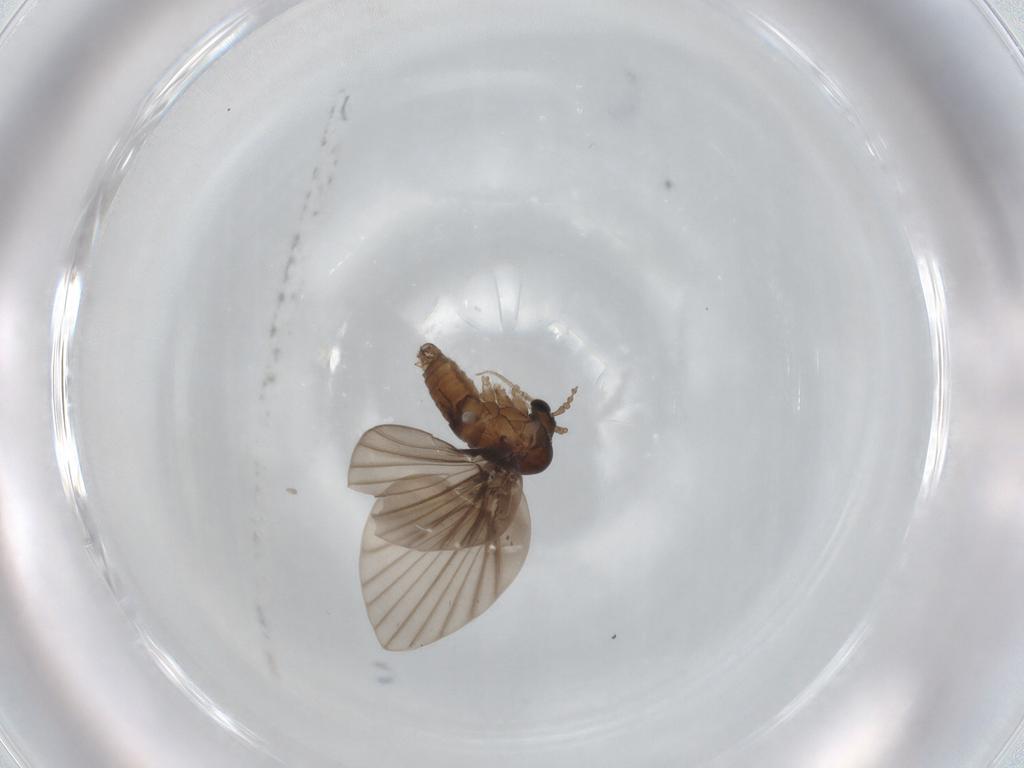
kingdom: Animalia
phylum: Arthropoda
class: Insecta
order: Diptera
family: Psychodidae
